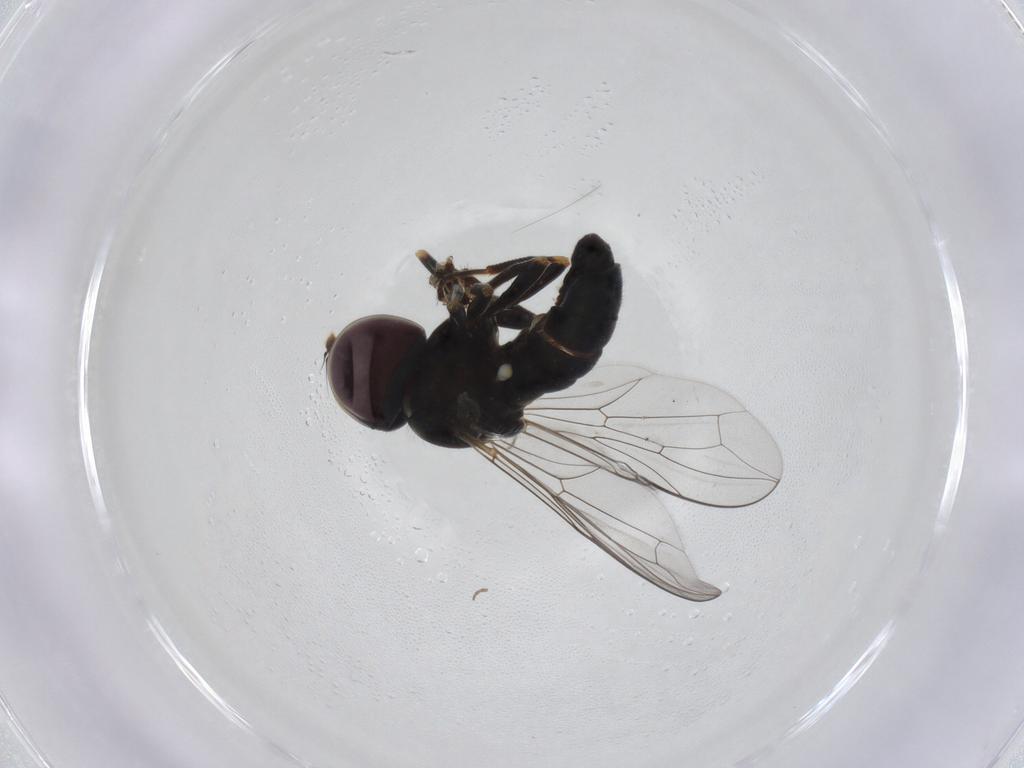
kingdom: Animalia
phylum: Arthropoda
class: Insecta
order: Diptera
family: Pipunculidae
